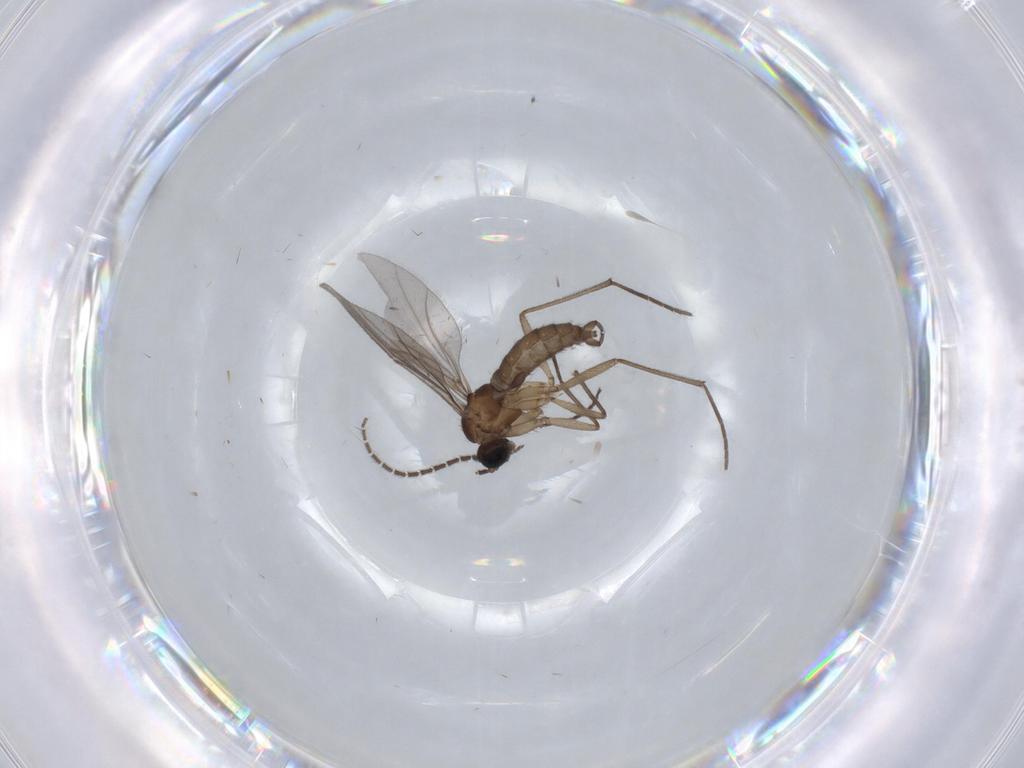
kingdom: Animalia
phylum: Arthropoda
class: Insecta
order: Diptera
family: Sciaridae
